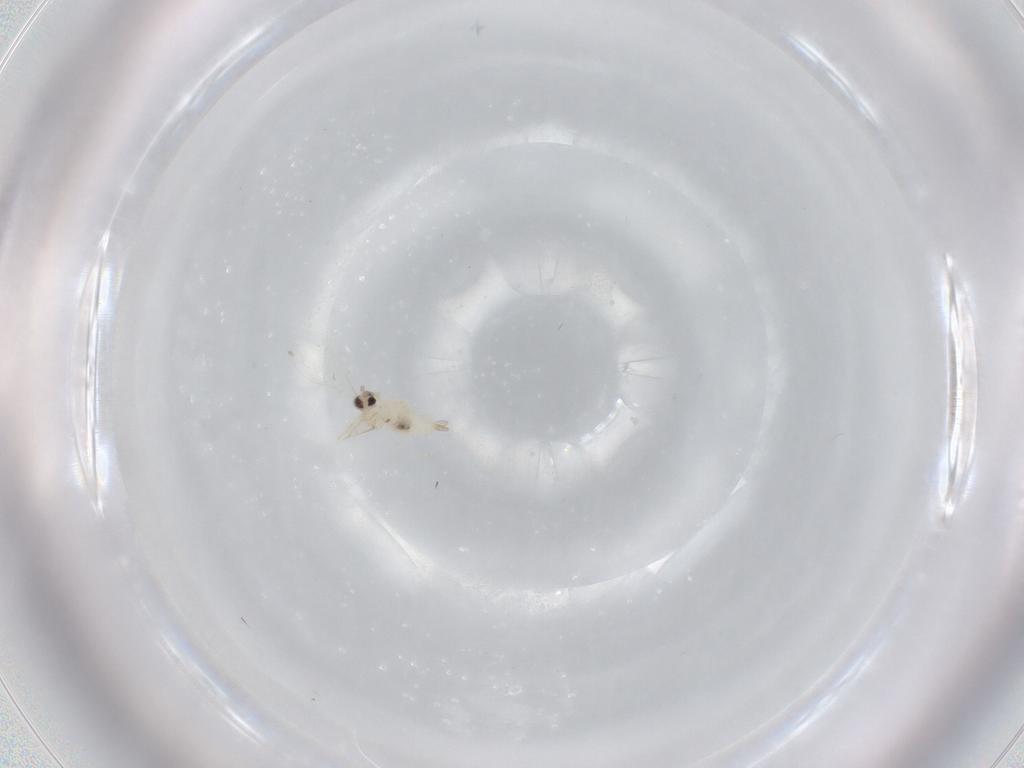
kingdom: Animalia
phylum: Arthropoda
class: Insecta
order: Diptera
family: Cecidomyiidae
